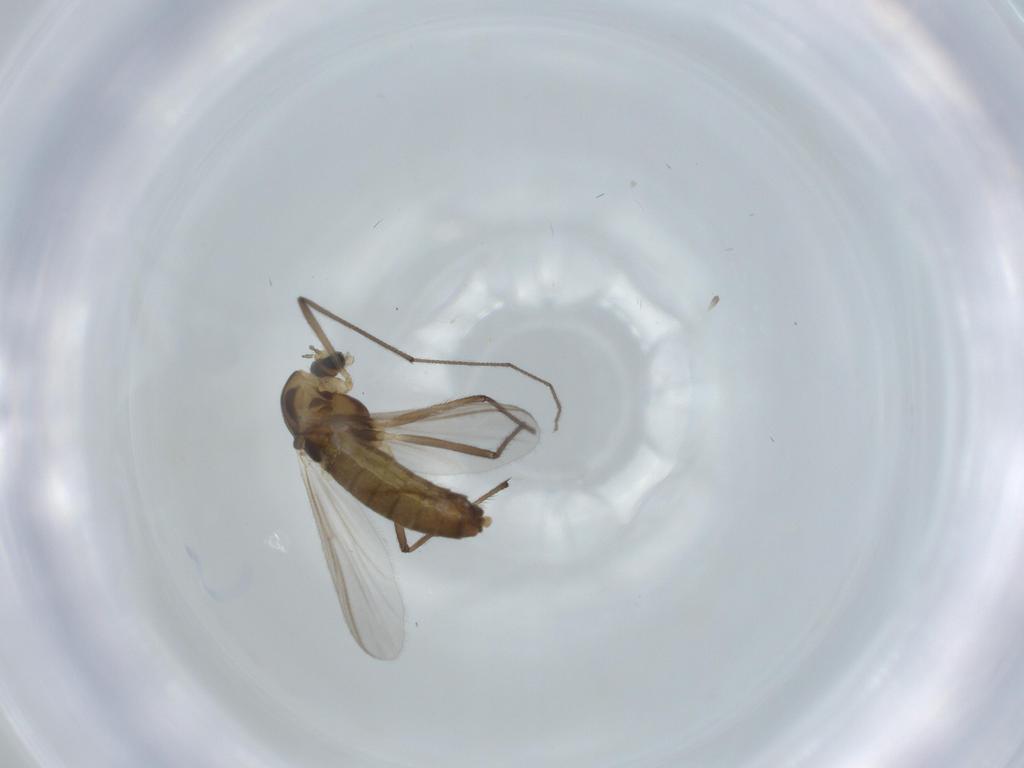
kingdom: Animalia
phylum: Arthropoda
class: Insecta
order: Diptera
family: Chironomidae
